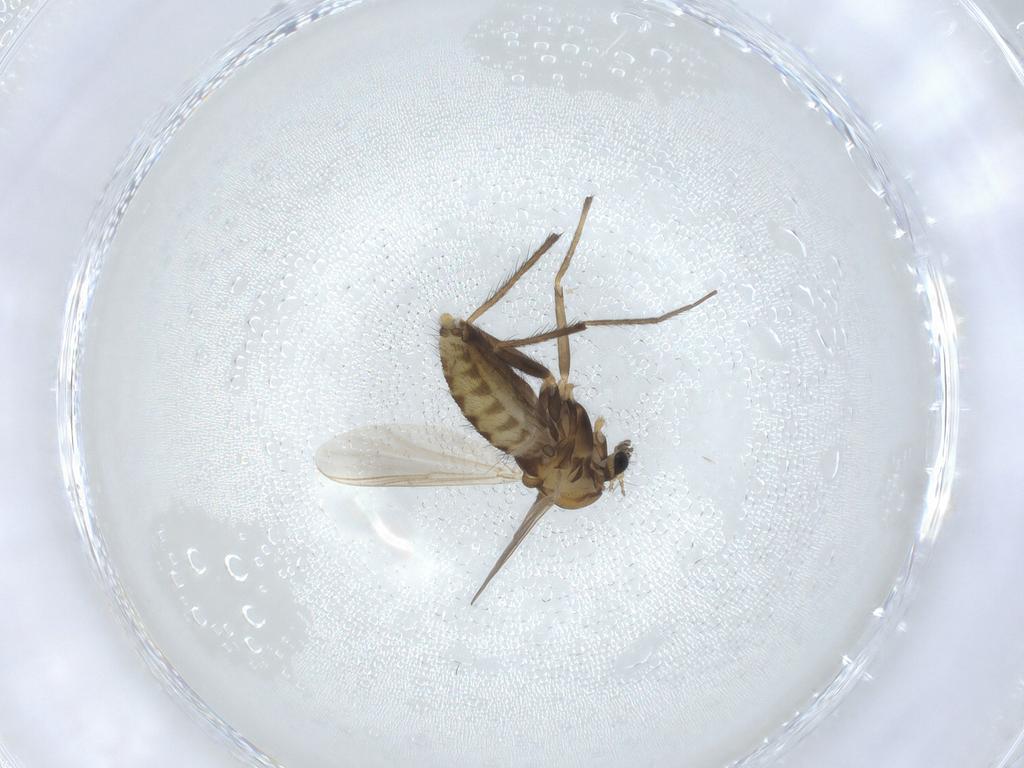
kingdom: Animalia
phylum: Arthropoda
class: Insecta
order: Diptera
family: Chironomidae
